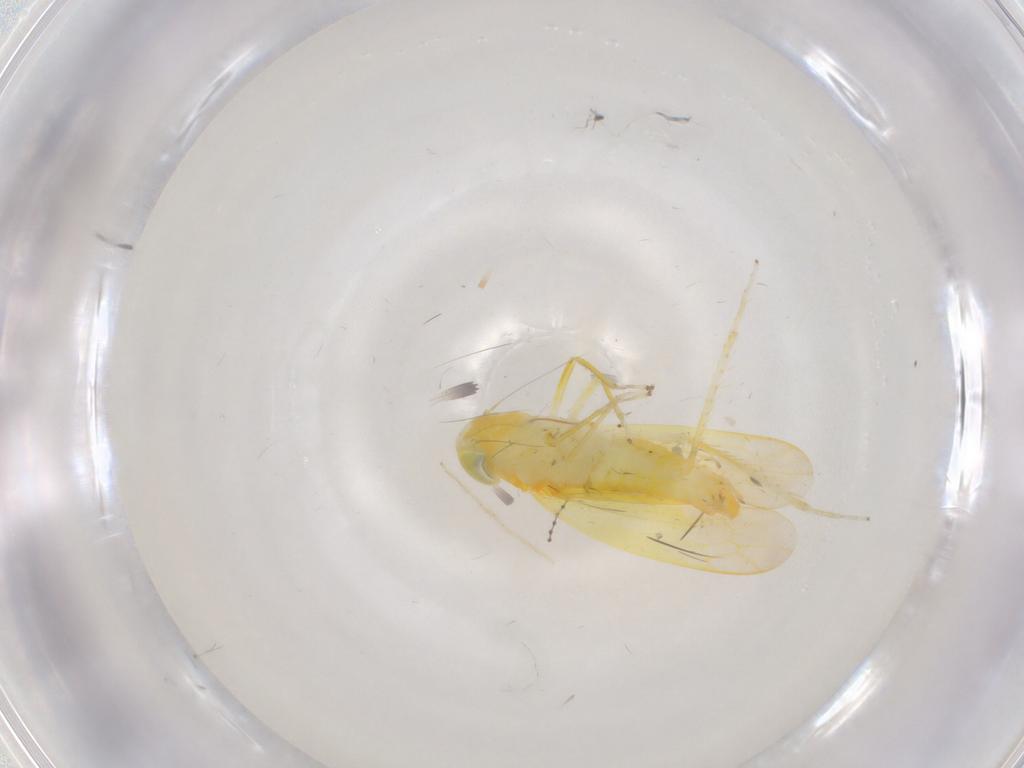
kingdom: Animalia
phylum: Arthropoda
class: Insecta
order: Hemiptera
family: Cicadellidae
